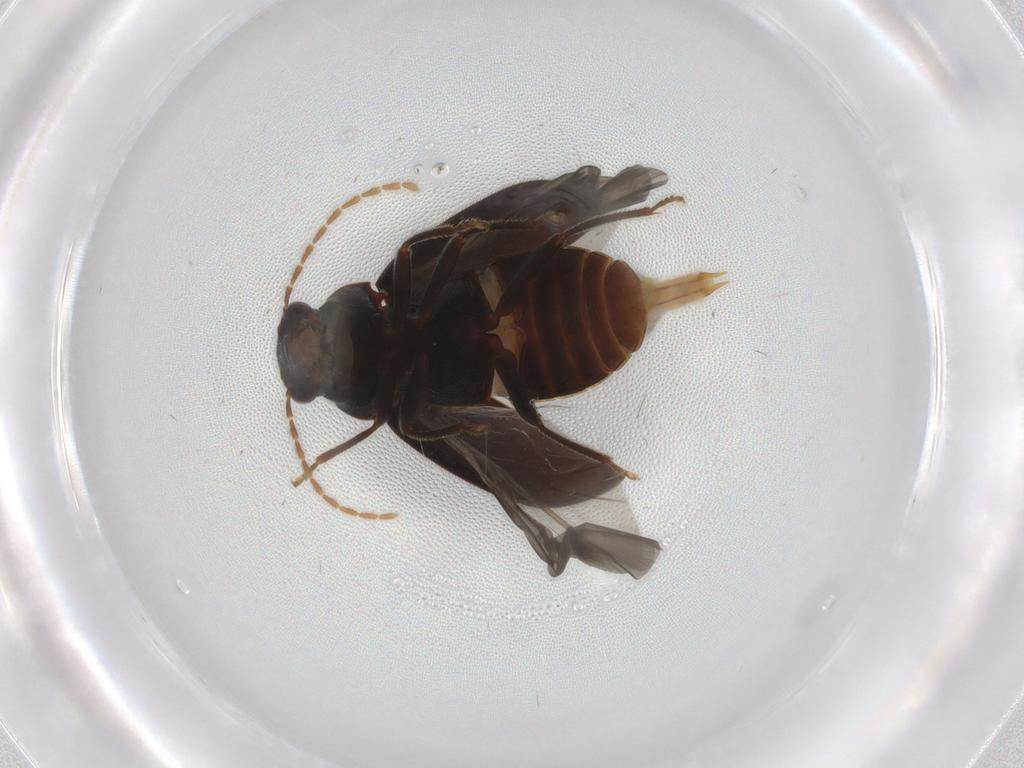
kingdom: Animalia
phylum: Arthropoda
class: Insecta
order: Coleoptera
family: Ptilodactylidae
